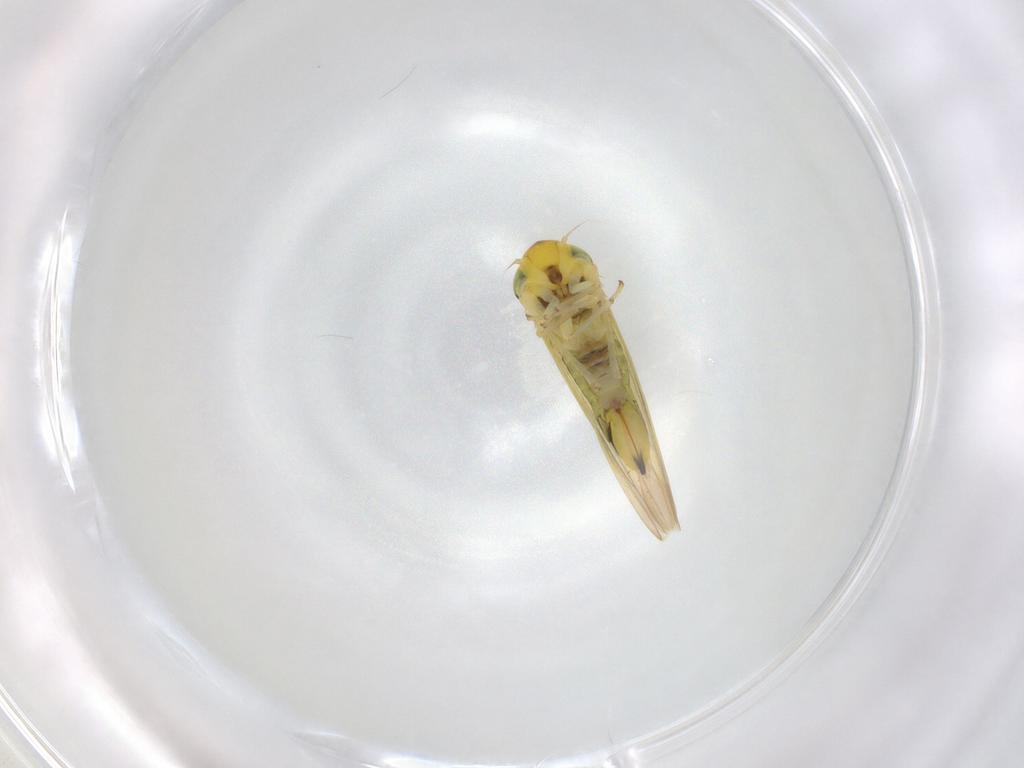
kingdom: Animalia
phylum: Arthropoda
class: Insecta
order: Hemiptera
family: Cicadellidae
